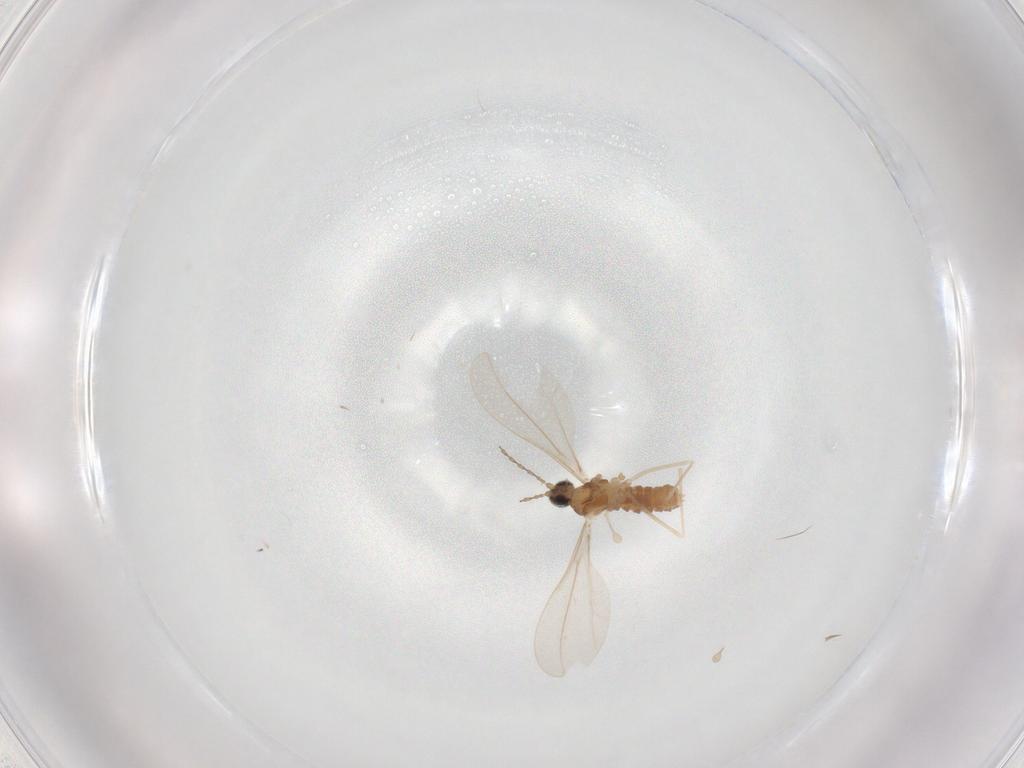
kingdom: Animalia
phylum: Arthropoda
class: Insecta
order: Diptera
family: Cecidomyiidae
